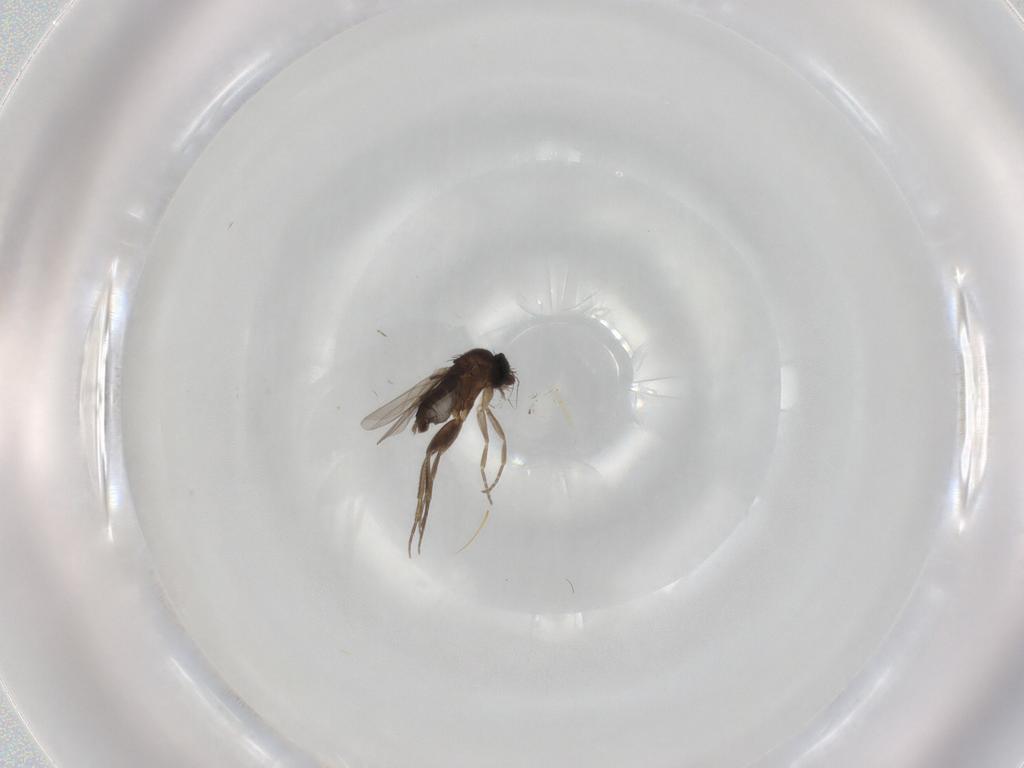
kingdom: Animalia
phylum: Arthropoda
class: Insecta
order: Diptera
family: Chironomidae
